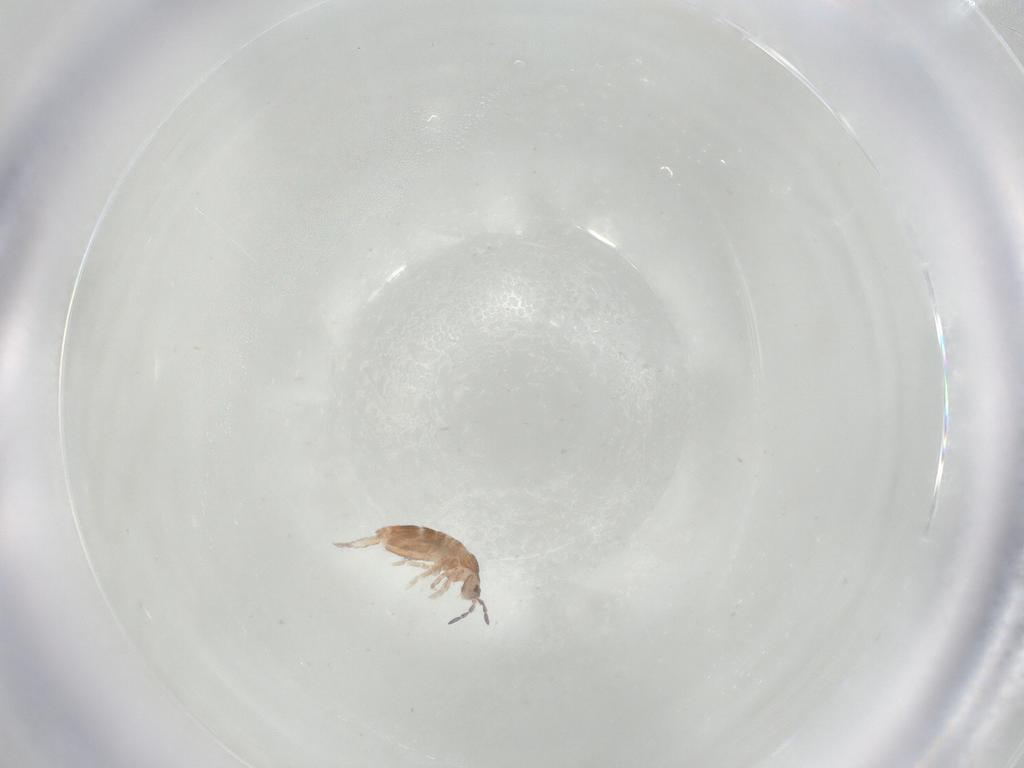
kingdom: Animalia
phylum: Arthropoda
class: Collembola
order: Entomobryomorpha
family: Entomobryidae
